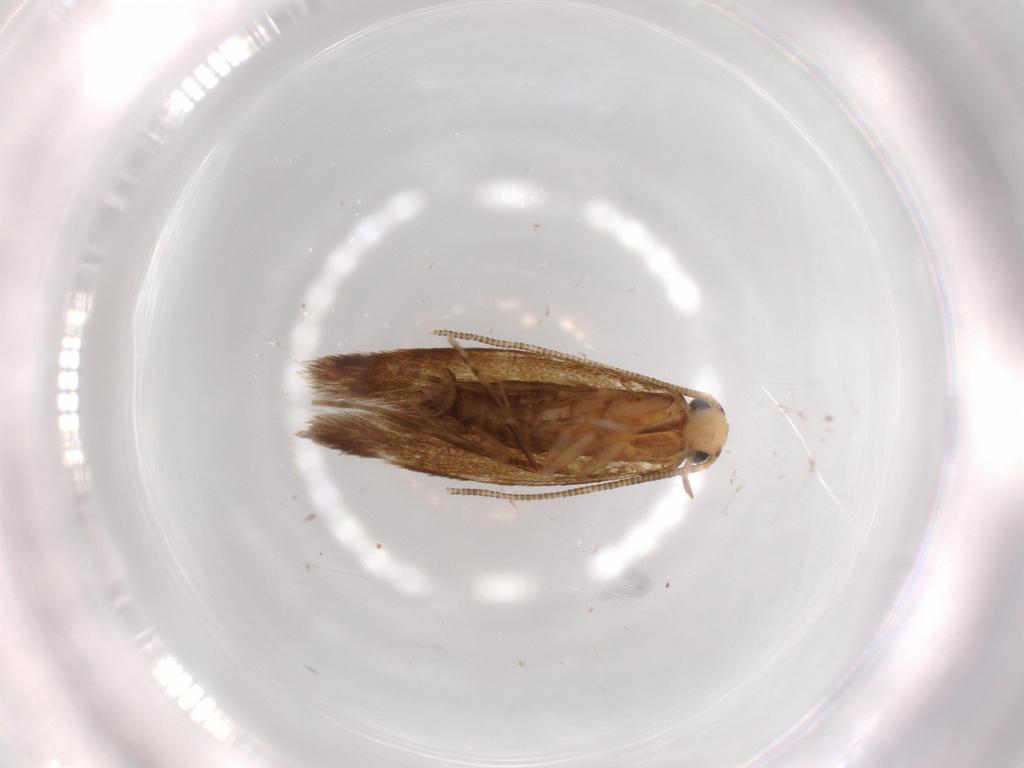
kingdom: Animalia
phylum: Arthropoda
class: Insecta
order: Lepidoptera
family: Tineidae
